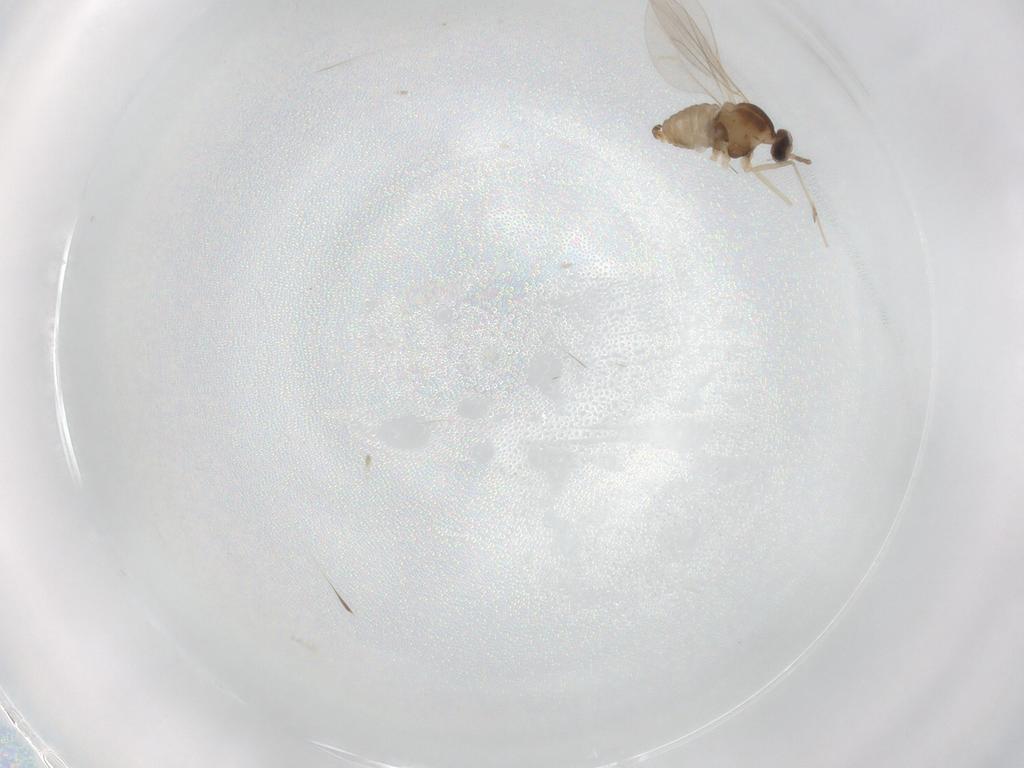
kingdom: Animalia
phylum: Arthropoda
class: Insecta
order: Diptera
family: Cecidomyiidae
